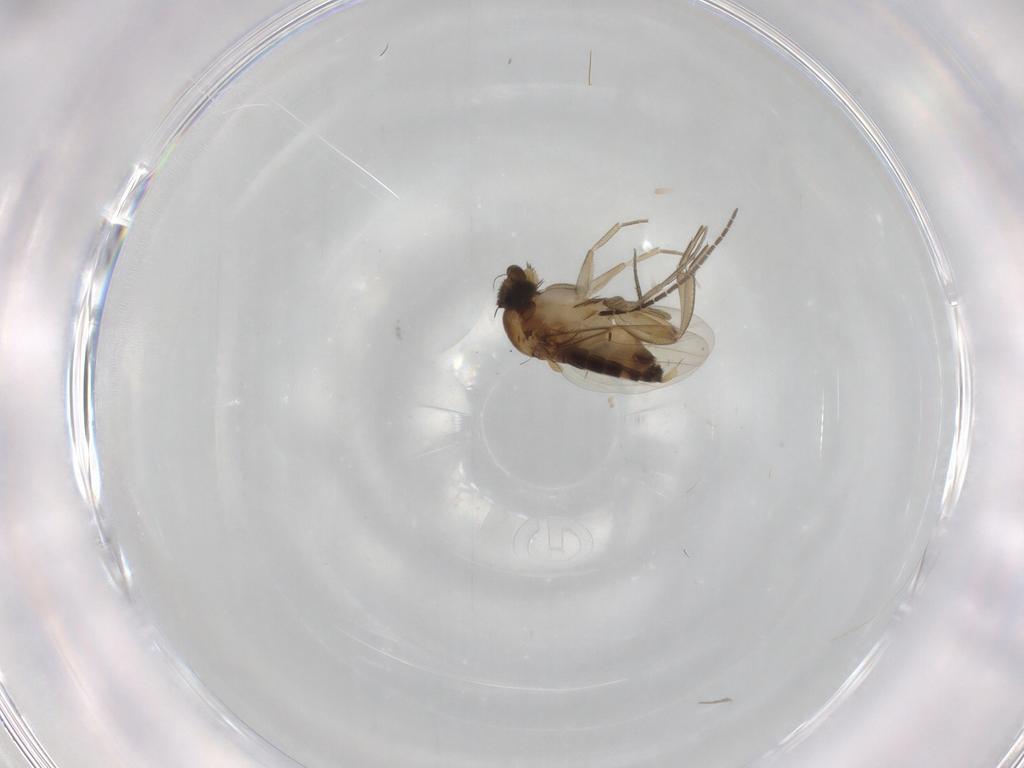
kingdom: Animalia
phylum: Arthropoda
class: Insecta
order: Diptera
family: Phoridae
